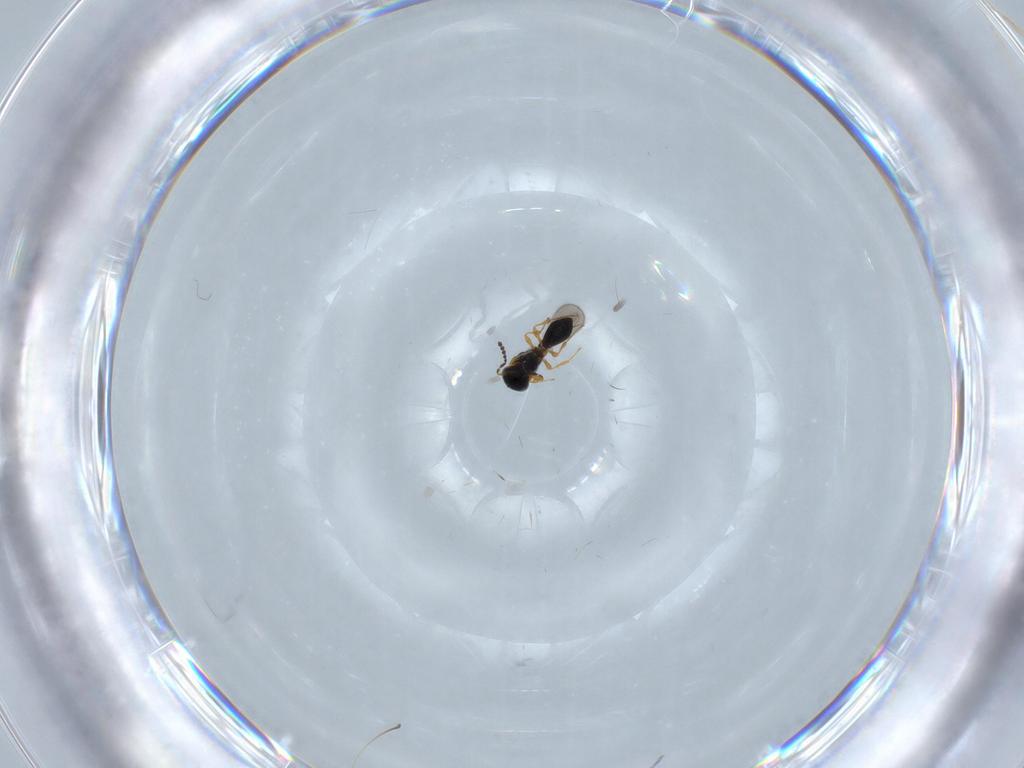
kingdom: Animalia
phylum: Arthropoda
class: Insecta
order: Hymenoptera
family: Platygastridae
